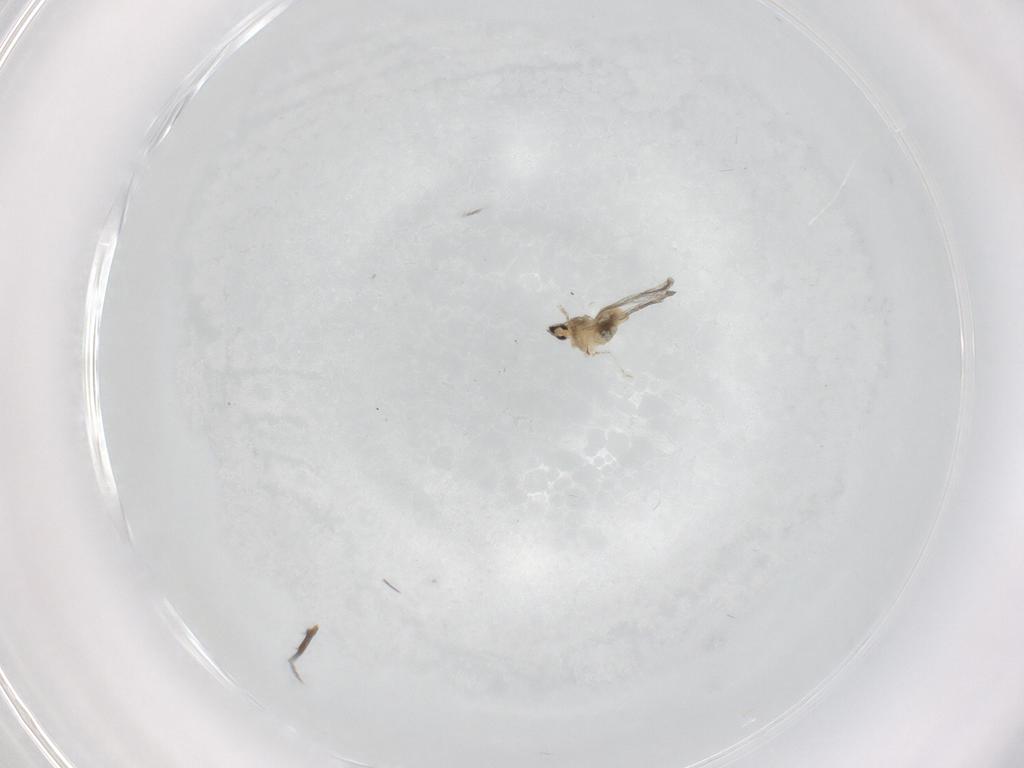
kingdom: Animalia
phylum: Arthropoda
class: Insecta
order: Diptera
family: Cecidomyiidae
